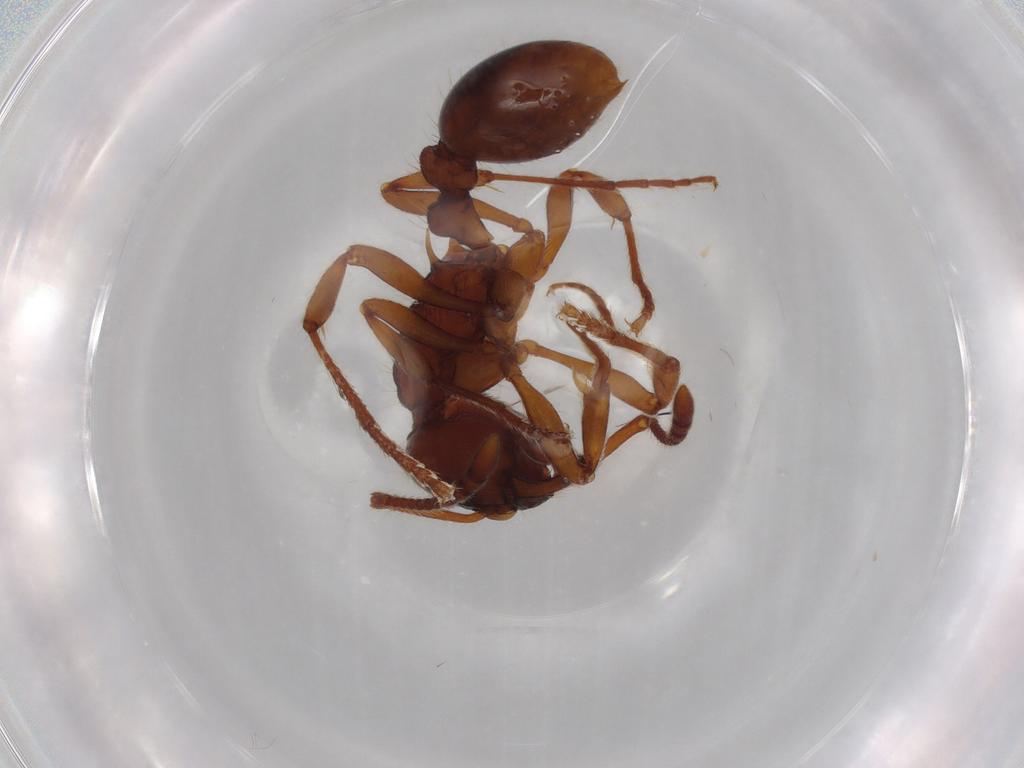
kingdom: Animalia
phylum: Arthropoda
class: Insecta
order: Hymenoptera
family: Formicidae
